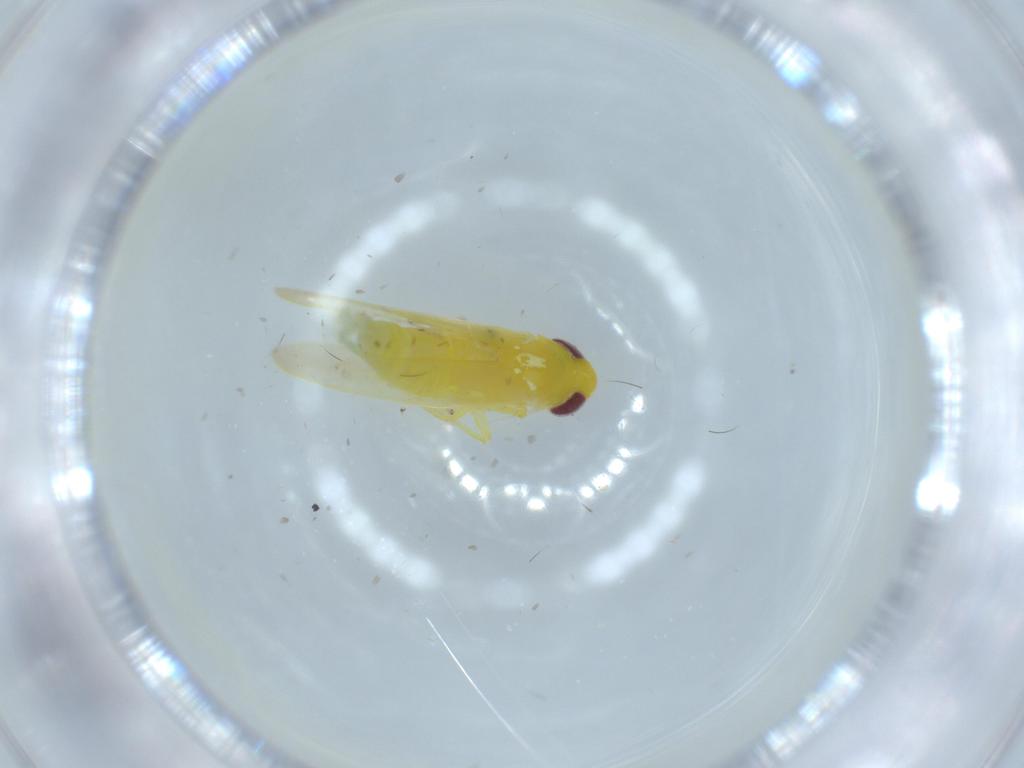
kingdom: Animalia
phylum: Arthropoda
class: Insecta
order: Hemiptera
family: Cicadellidae
